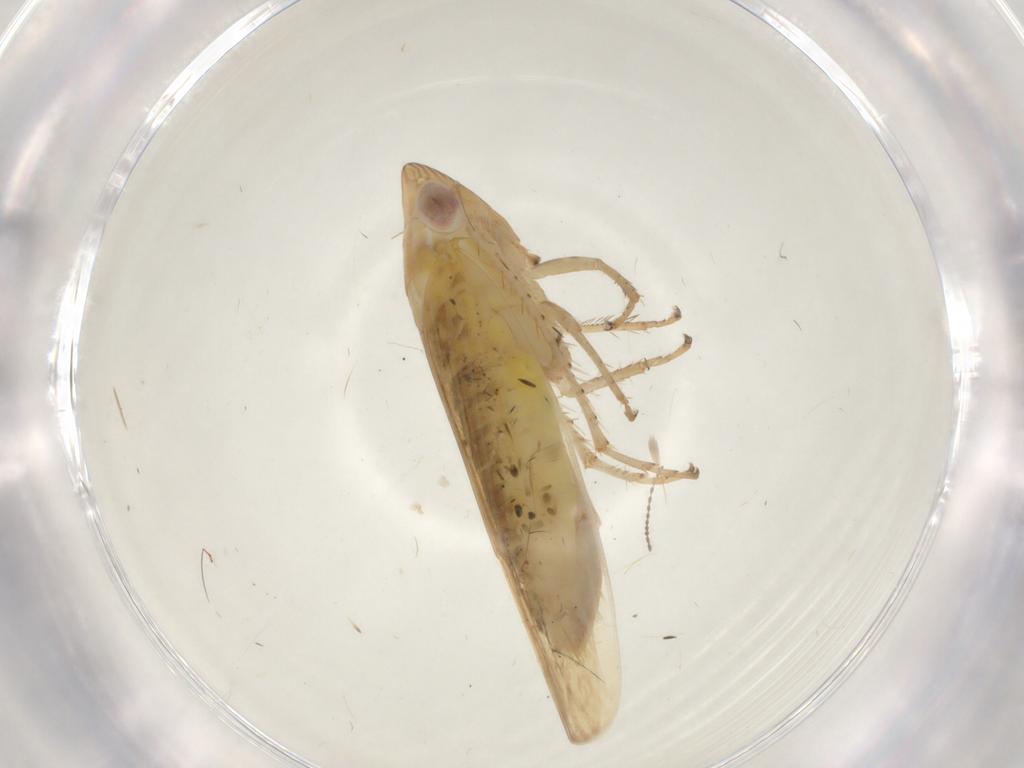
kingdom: Animalia
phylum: Arthropoda
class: Insecta
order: Hemiptera
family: Cicadellidae
